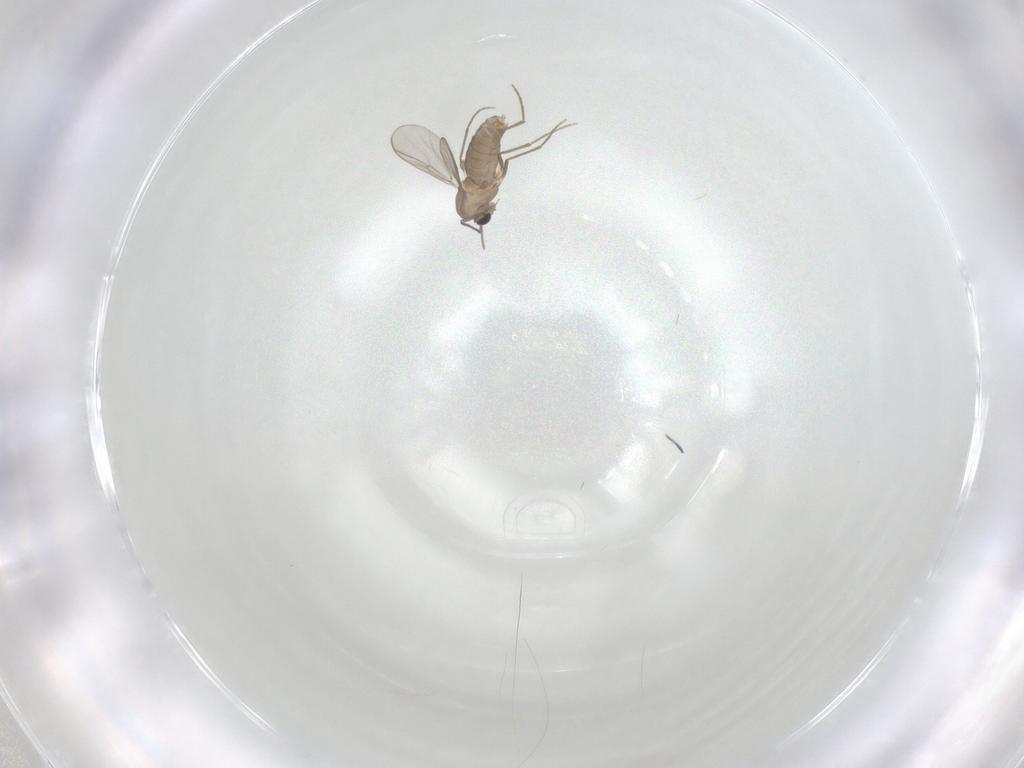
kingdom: Animalia
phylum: Arthropoda
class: Insecta
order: Diptera
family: Chironomidae
